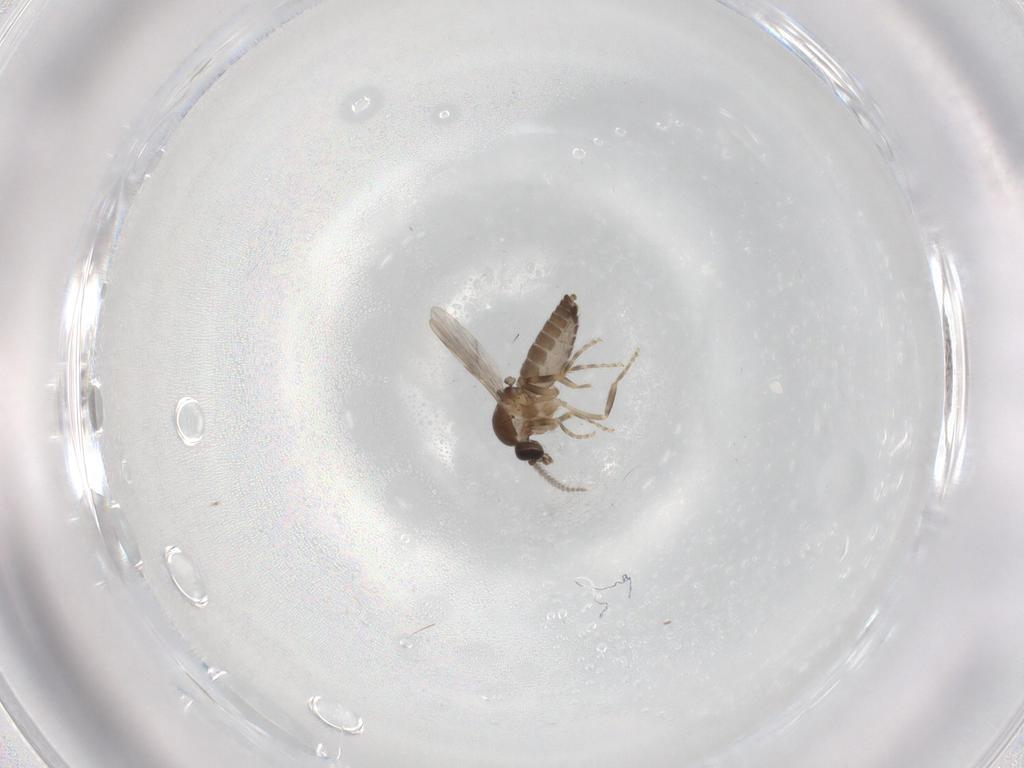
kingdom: Animalia
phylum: Arthropoda
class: Insecta
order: Diptera
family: Ceratopogonidae
